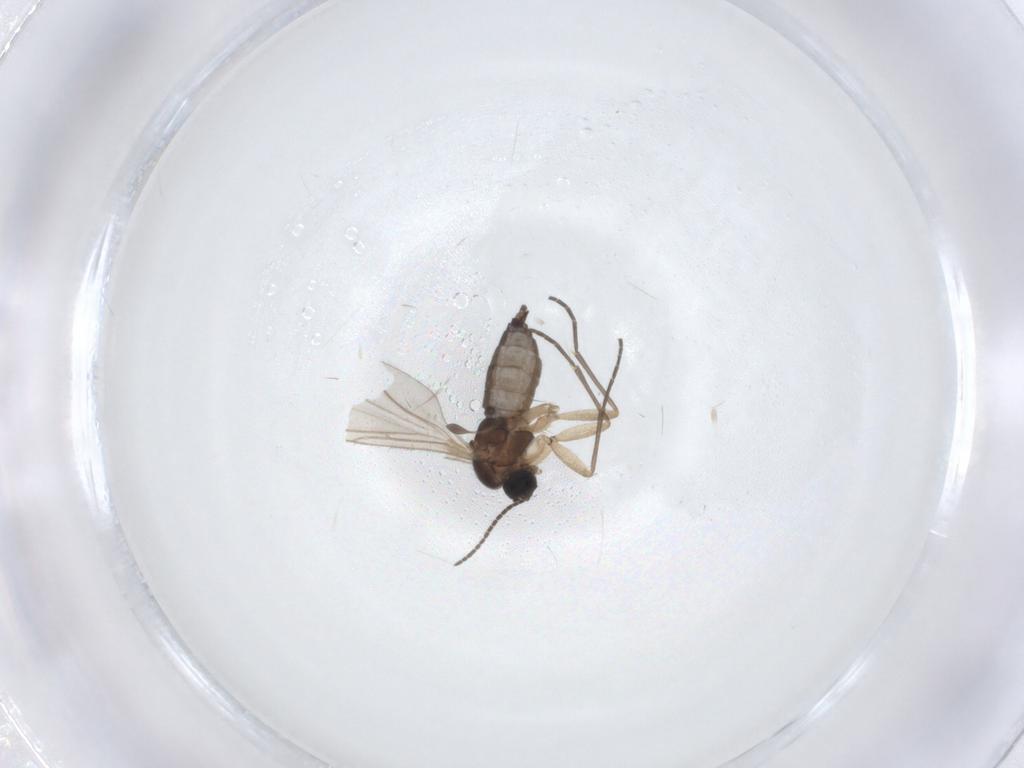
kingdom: Animalia
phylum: Arthropoda
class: Insecta
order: Diptera
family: Sciaridae
